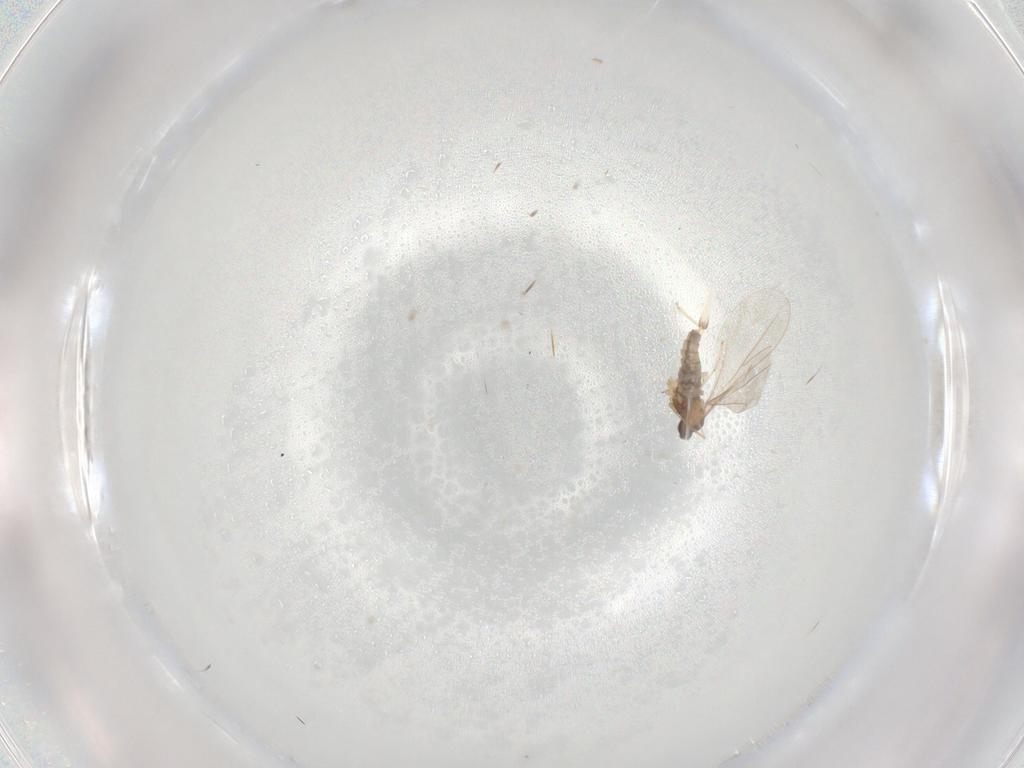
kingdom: Animalia
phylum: Arthropoda
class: Insecta
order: Diptera
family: Cecidomyiidae
